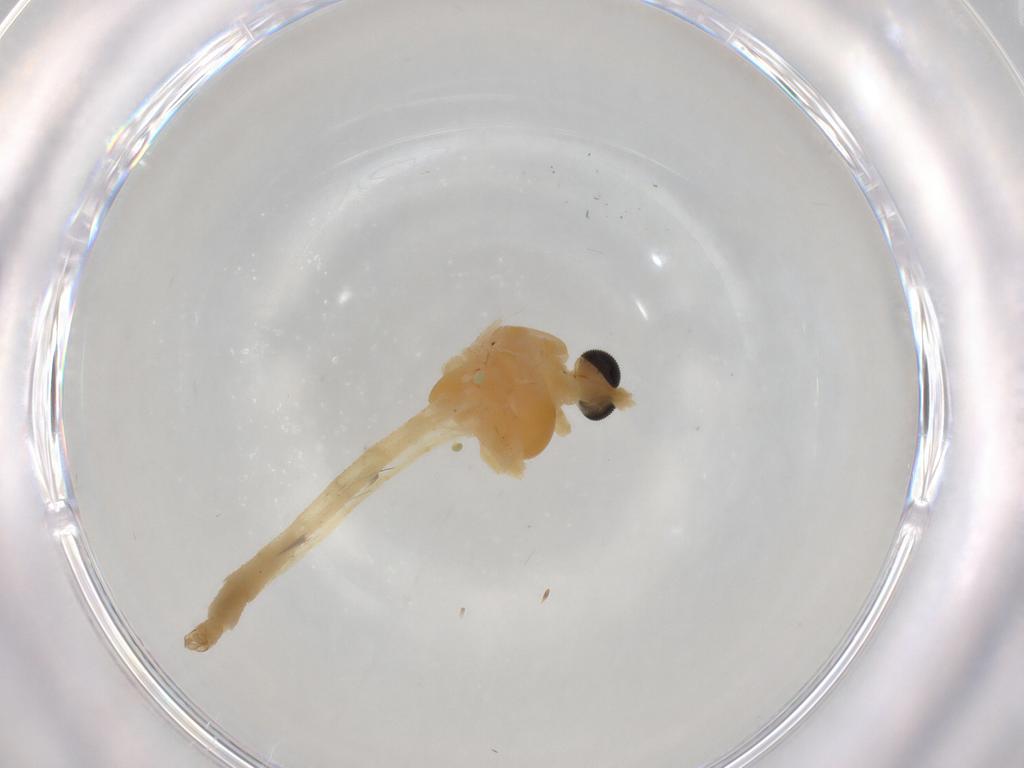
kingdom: Animalia
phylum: Arthropoda
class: Insecta
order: Diptera
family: Chironomidae
